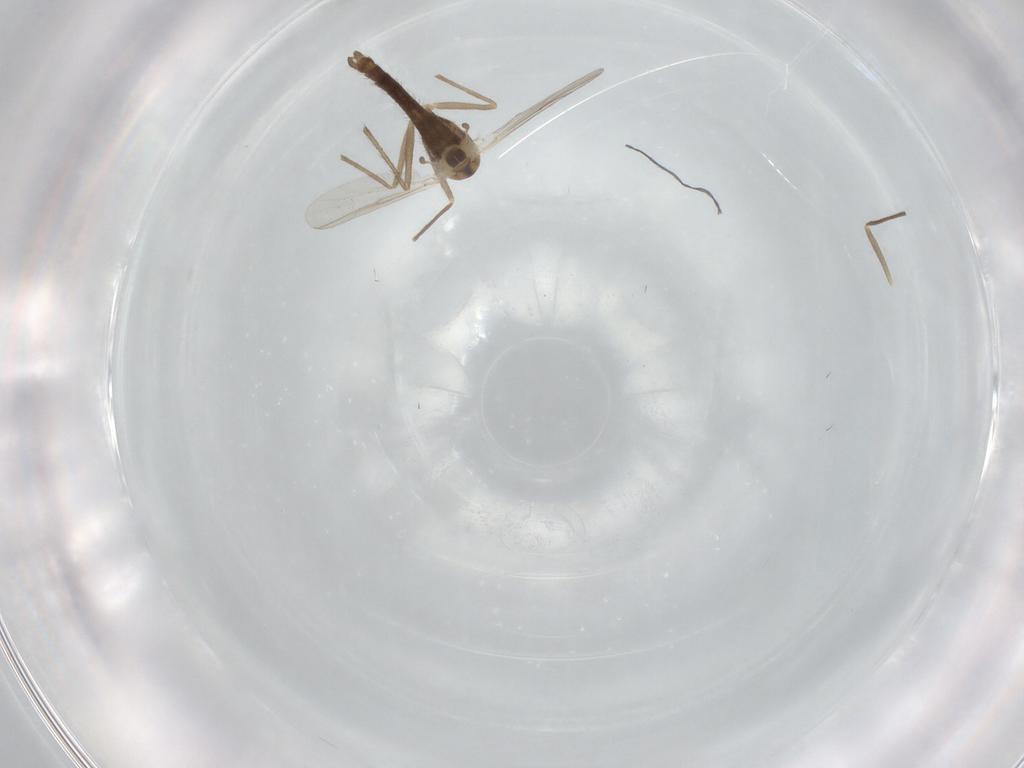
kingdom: Animalia
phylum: Arthropoda
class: Insecta
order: Diptera
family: Chironomidae
